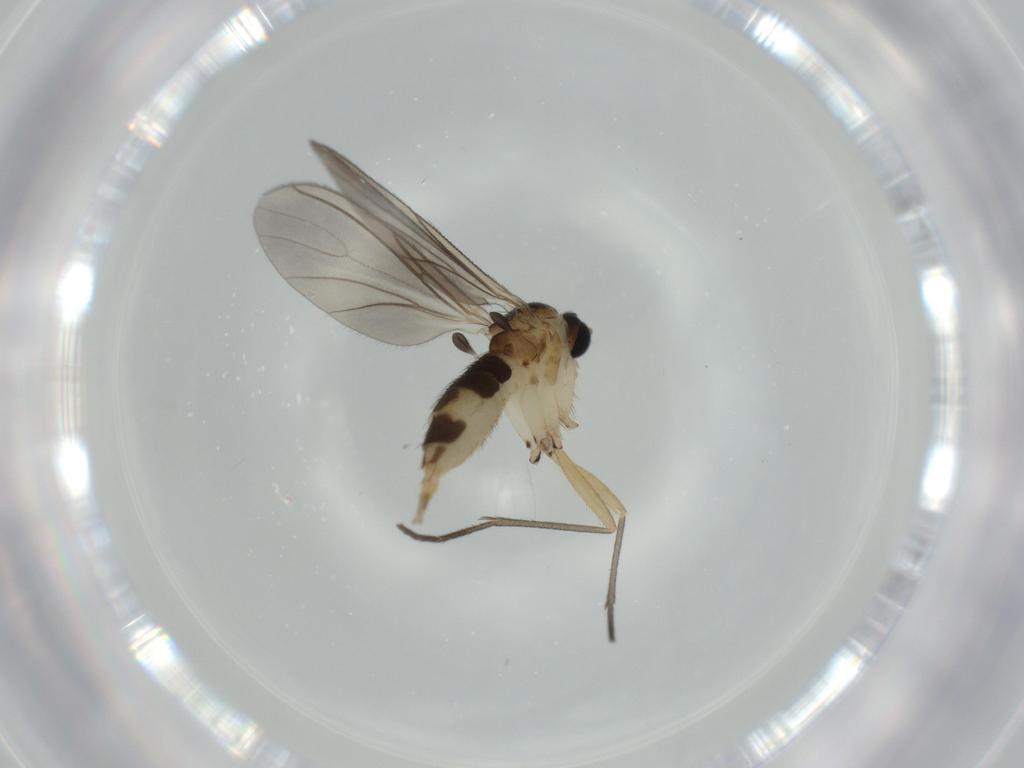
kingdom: Animalia
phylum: Arthropoda
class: Insecta
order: Diptera
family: Sciaridae
